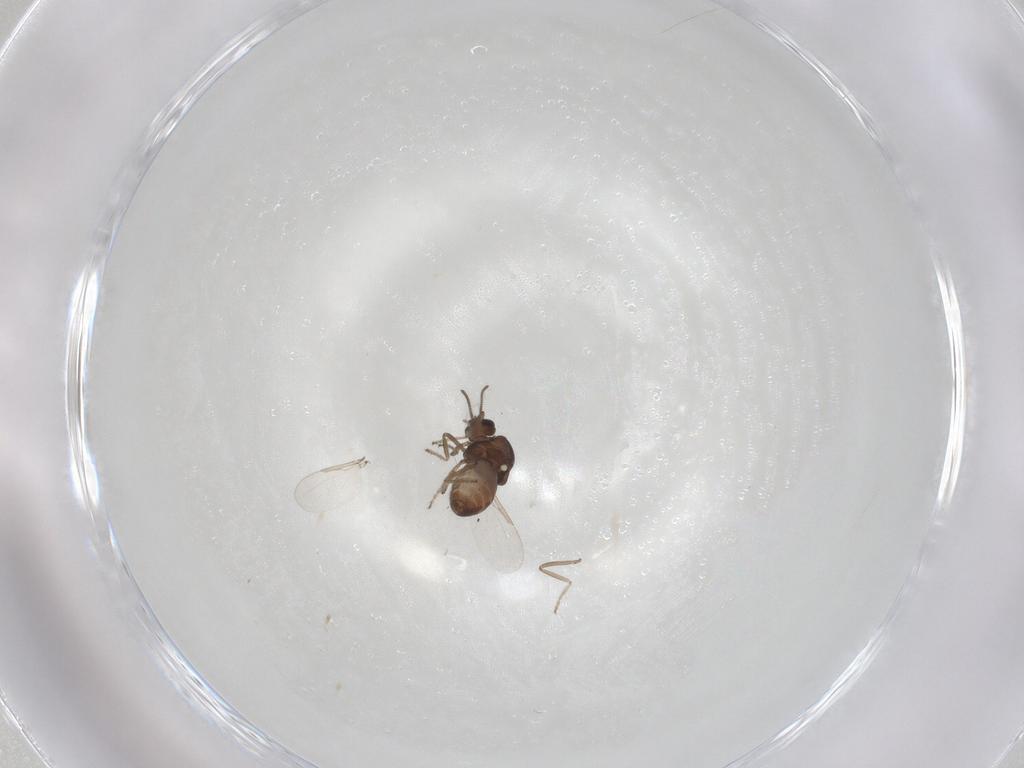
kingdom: Animalia
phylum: Arthropoda
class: Insecta
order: Diptera
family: Ceratopogonidae
